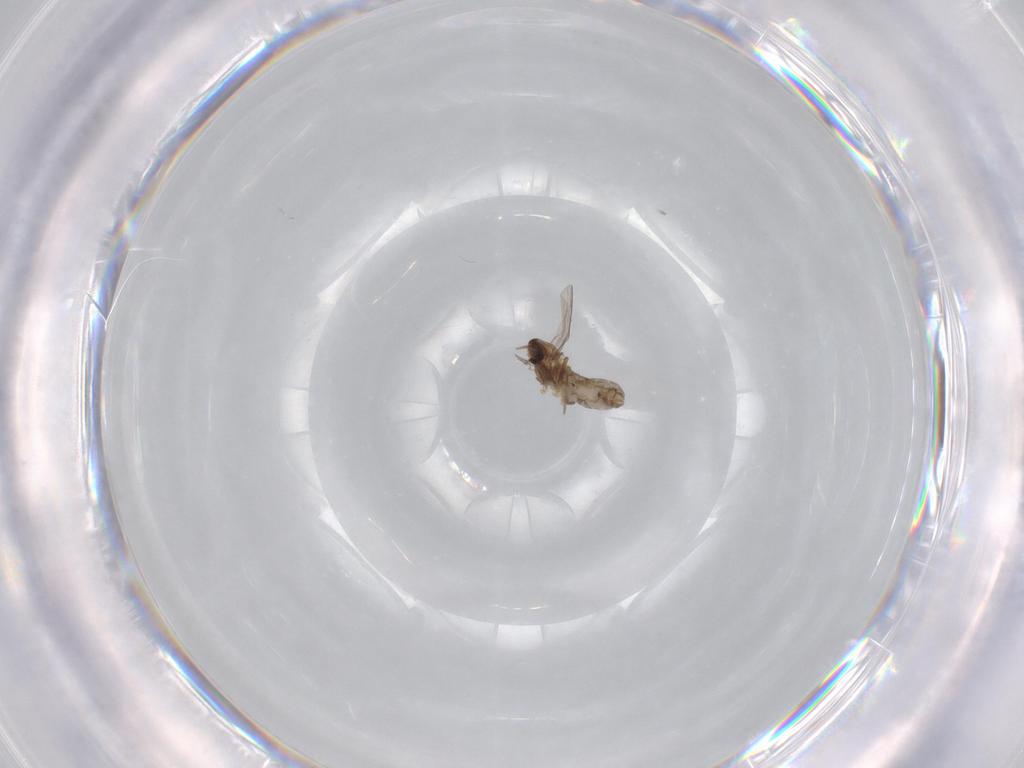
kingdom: Animalia
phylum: Arthropoda
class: Insecta
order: Diptera
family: Chironomidae
